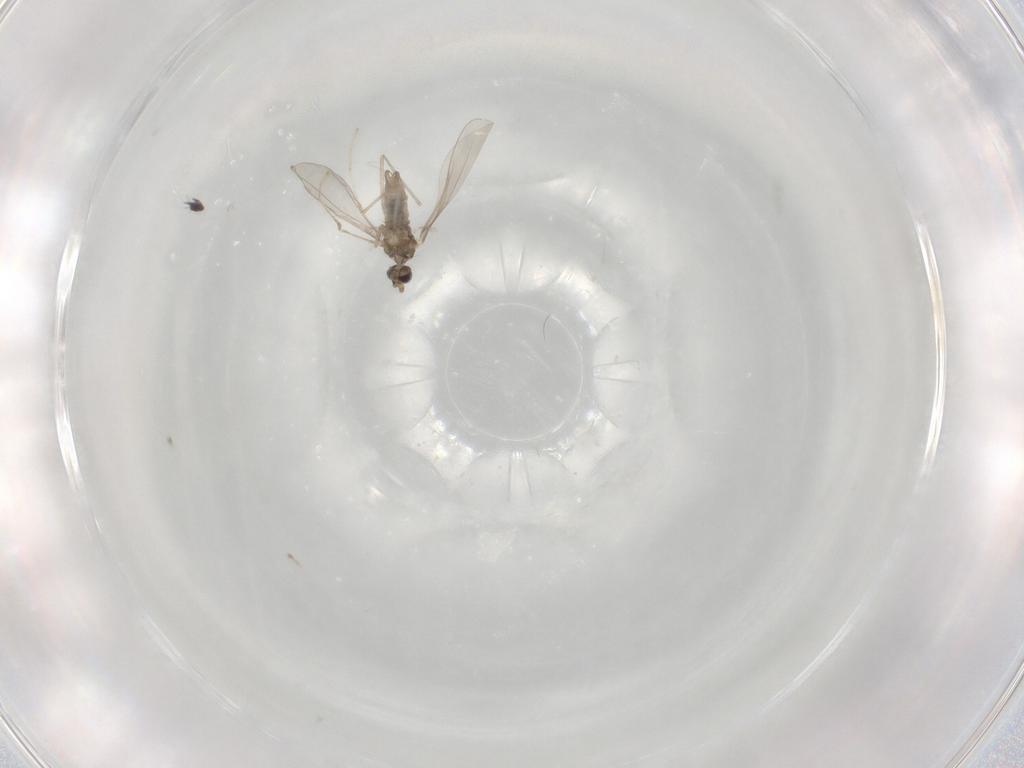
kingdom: Animalia
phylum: Arthropoda
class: Insecta
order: Diptera
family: Cecidomyiidae
